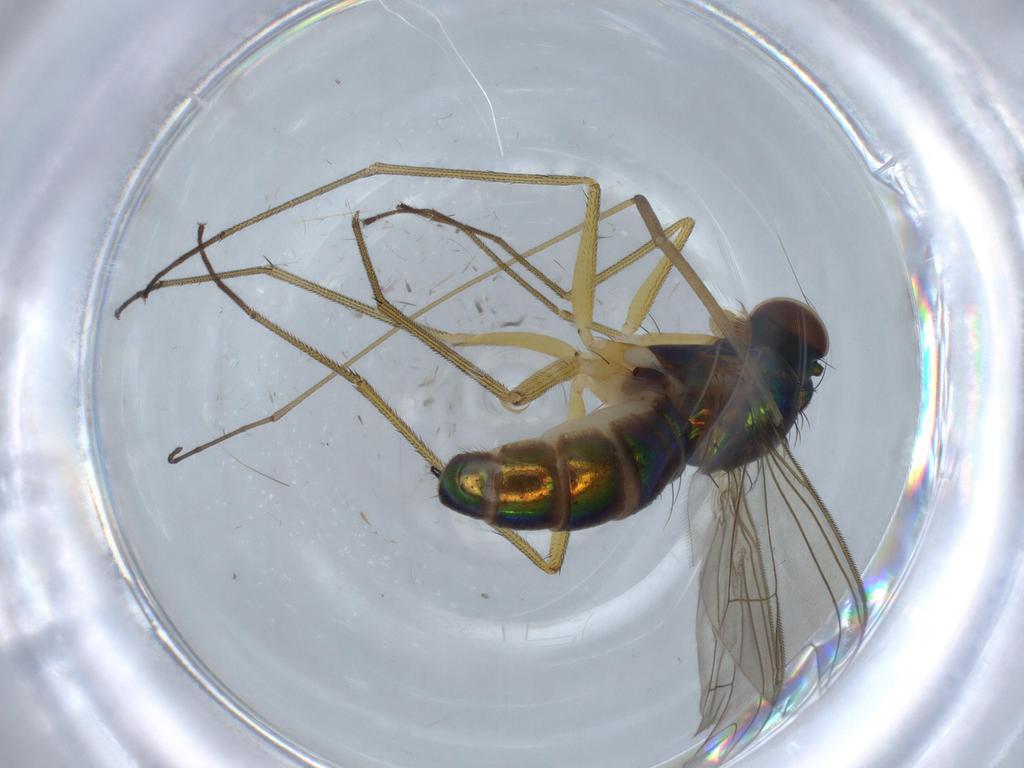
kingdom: Animalia
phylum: Arthropoda
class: Insecta
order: Diptera
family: Dolichopodidae
